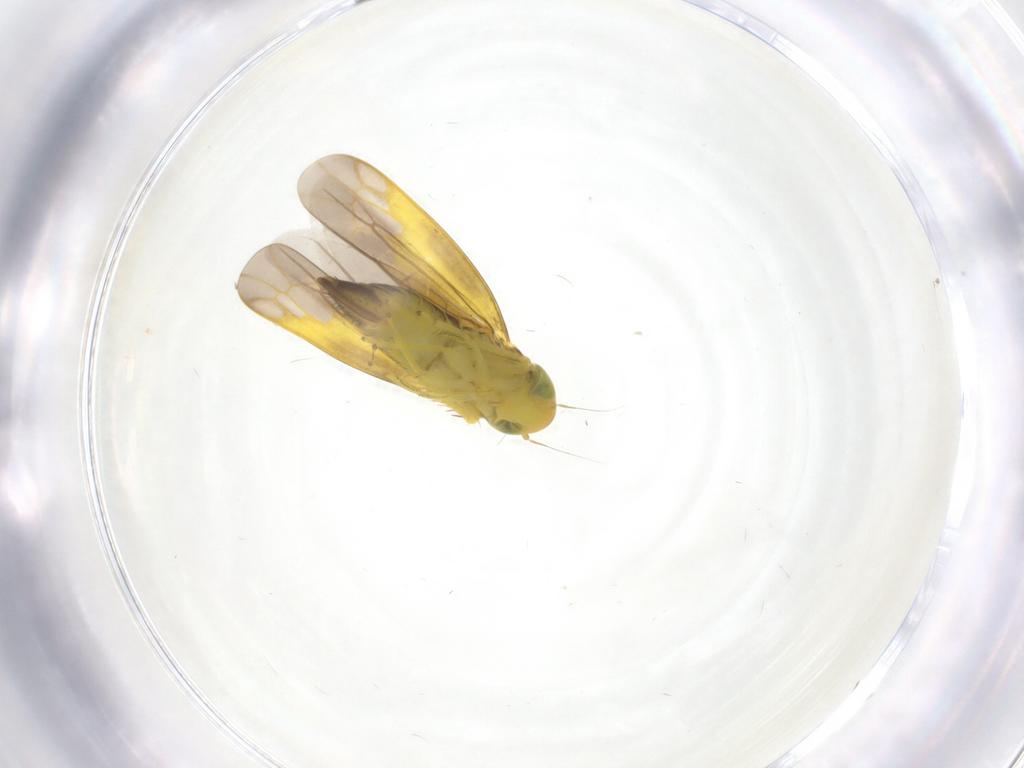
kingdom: Animalia
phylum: Arthropoda
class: Insecta
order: Hemiptera
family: Cicadellidae
